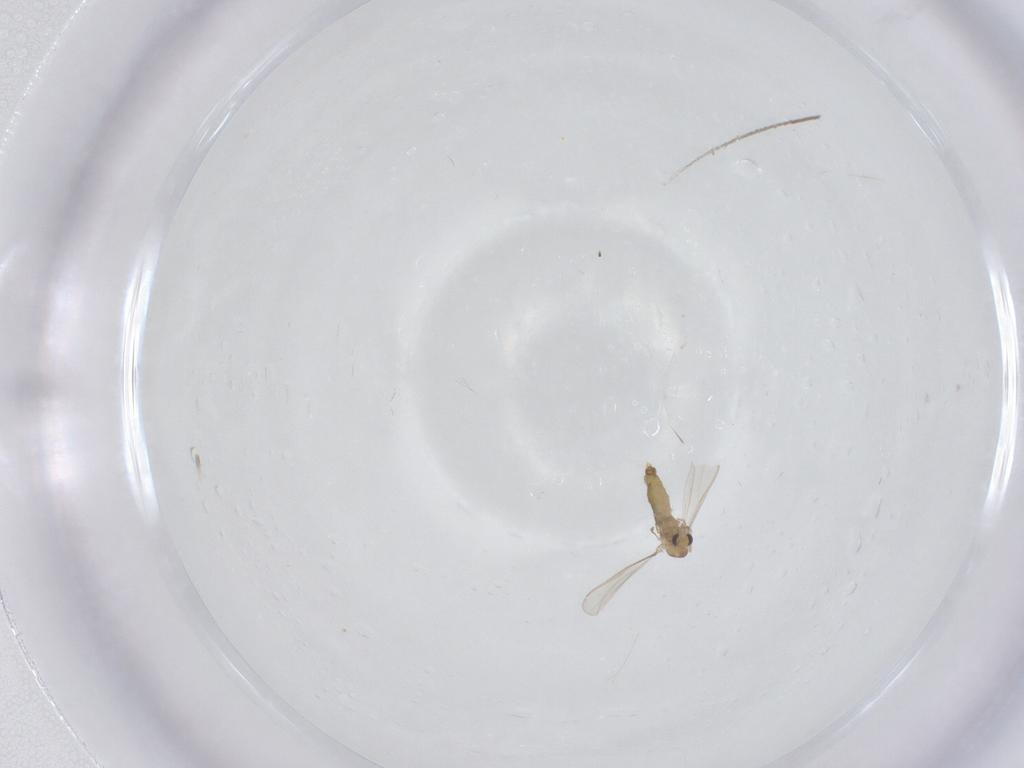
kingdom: Animalia
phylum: Arthropoda
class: Insecta
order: Diptera
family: Chironomidae
